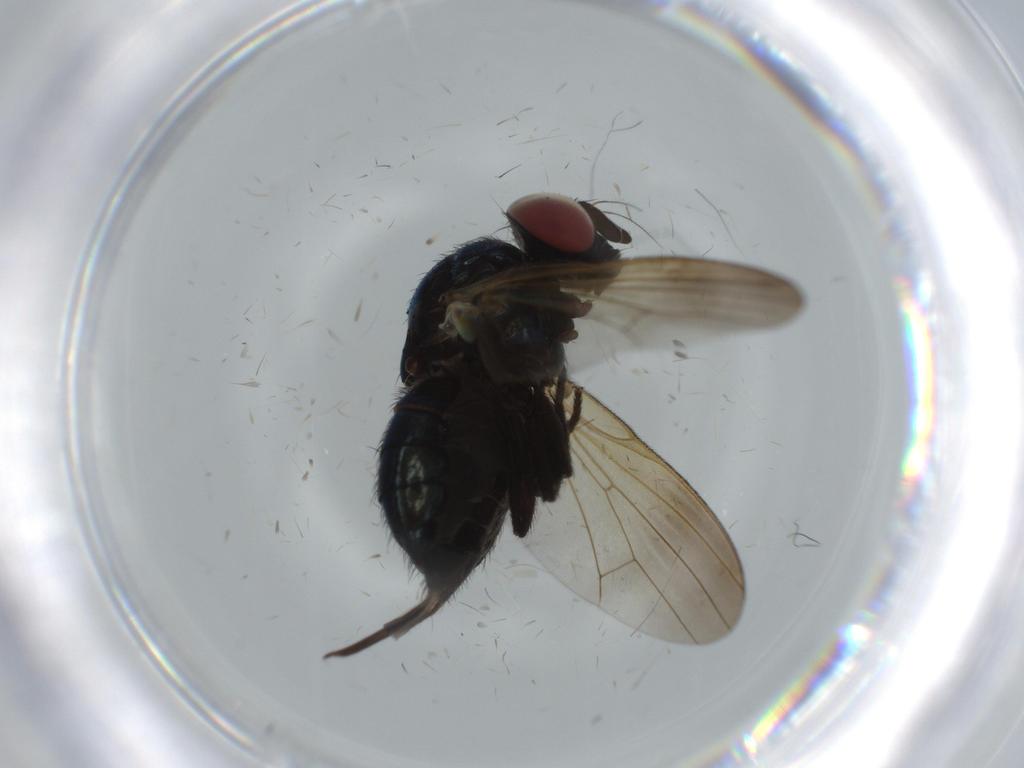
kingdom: Animalia
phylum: Arthropoda
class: Insecta
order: Diptera
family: Lonchaeidae
